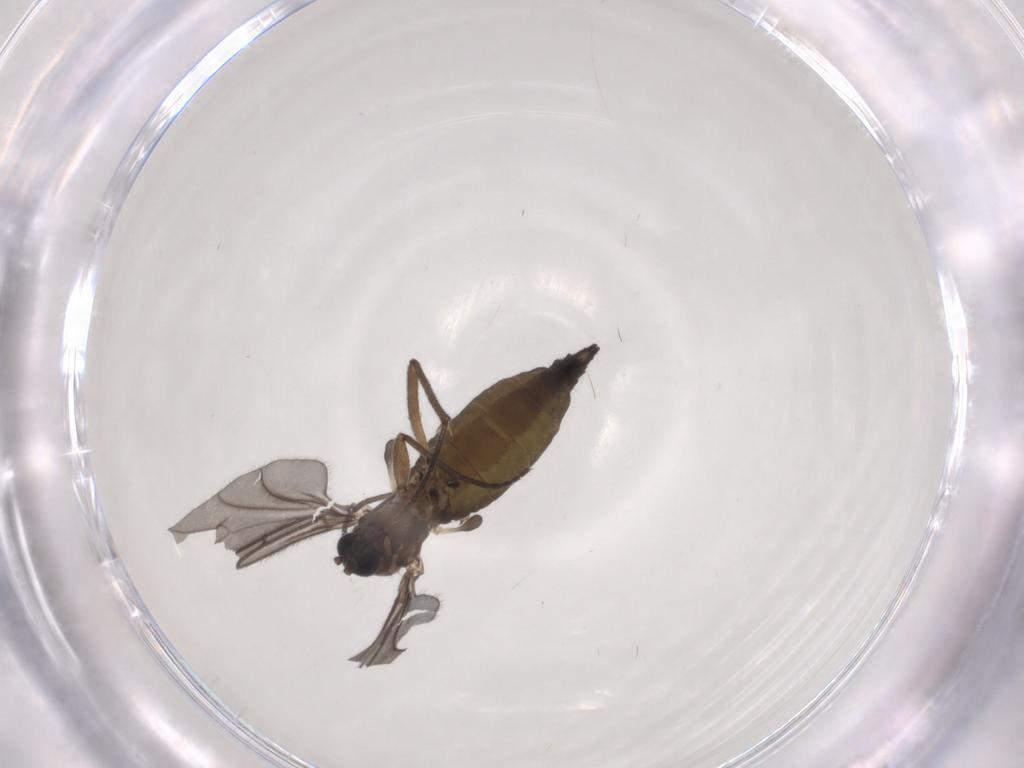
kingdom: Animalia
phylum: Arthropoda
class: Insecta
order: Diptera
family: Sciaridae
